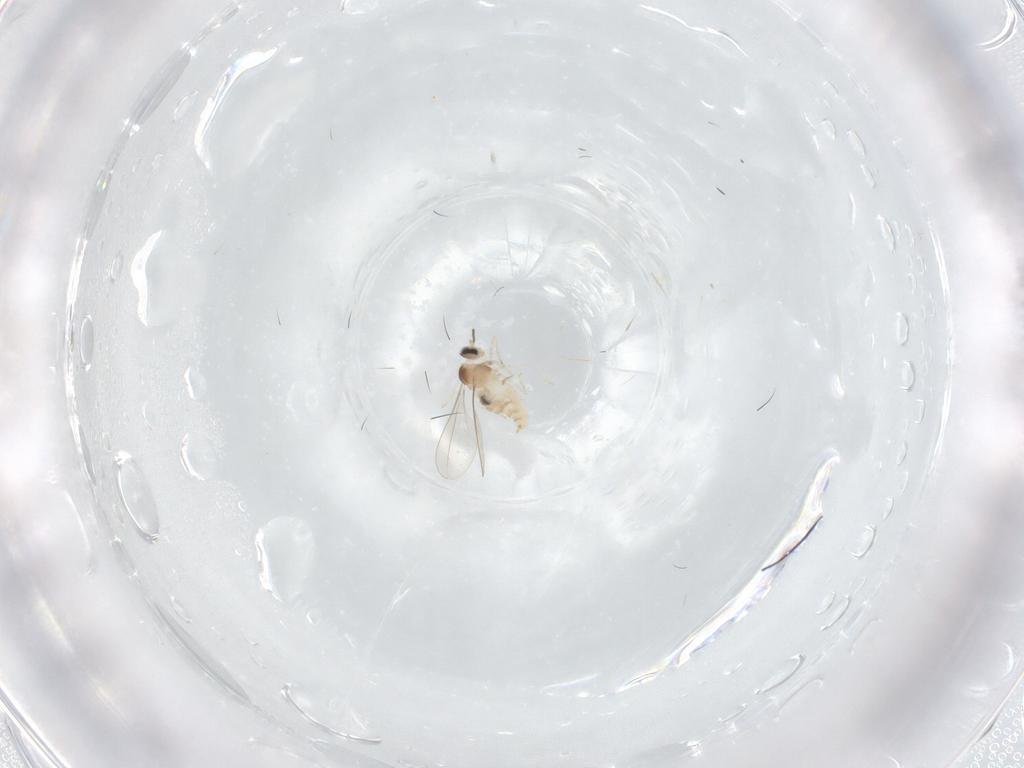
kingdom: Animalia
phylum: Arthropoda
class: Insecta
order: Diptera
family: Cecidomyiidae
